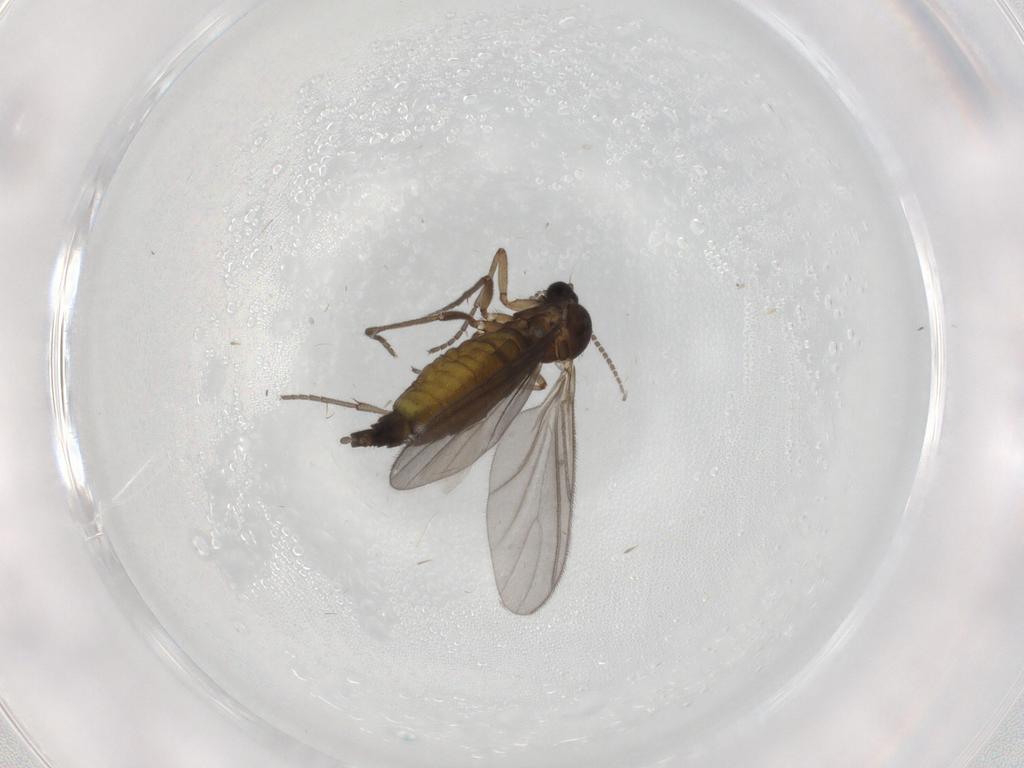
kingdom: Animalia
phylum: Arthropoda
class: Insecta
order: Diptera
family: Sciaridae
